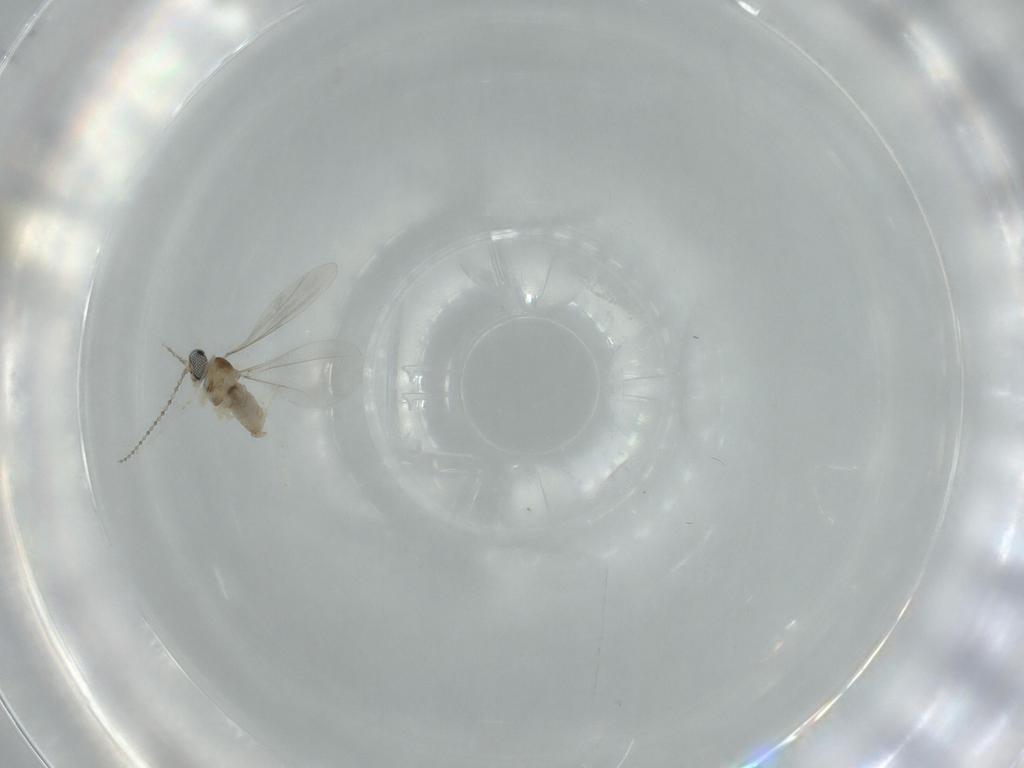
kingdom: Animalia
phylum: Arthropoda
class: Insecta
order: Diptera
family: Cecidomyiidae
